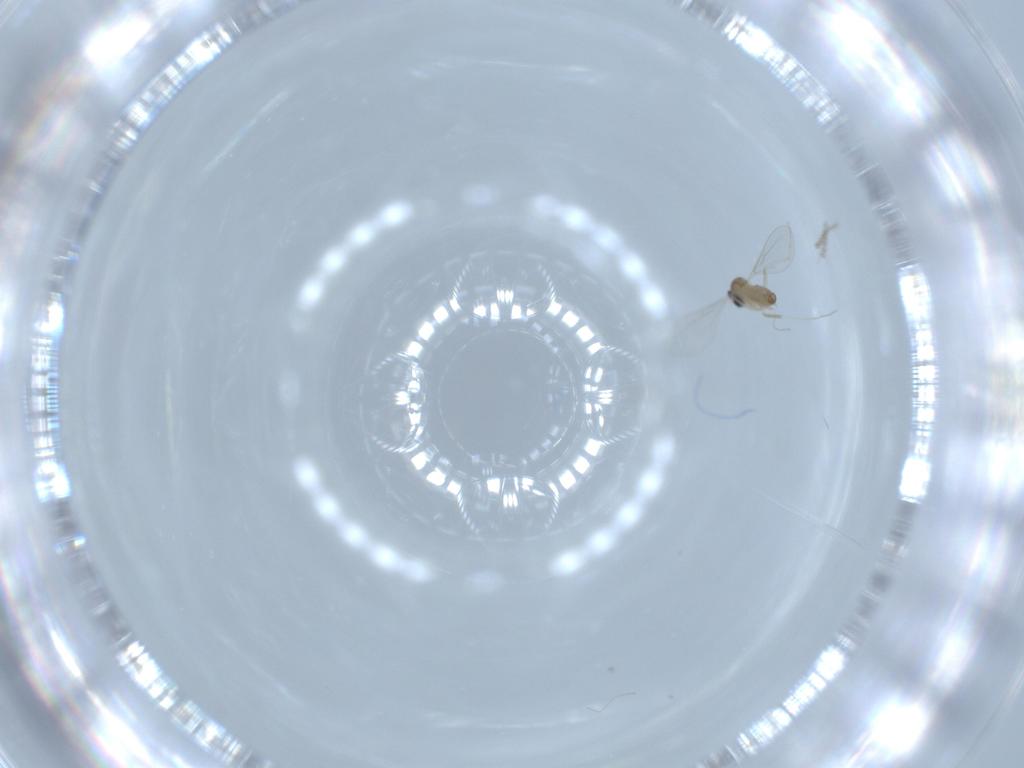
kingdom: Animalia
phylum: Arthropoda
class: Insecta
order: Diptera
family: Cecidomyiidae
